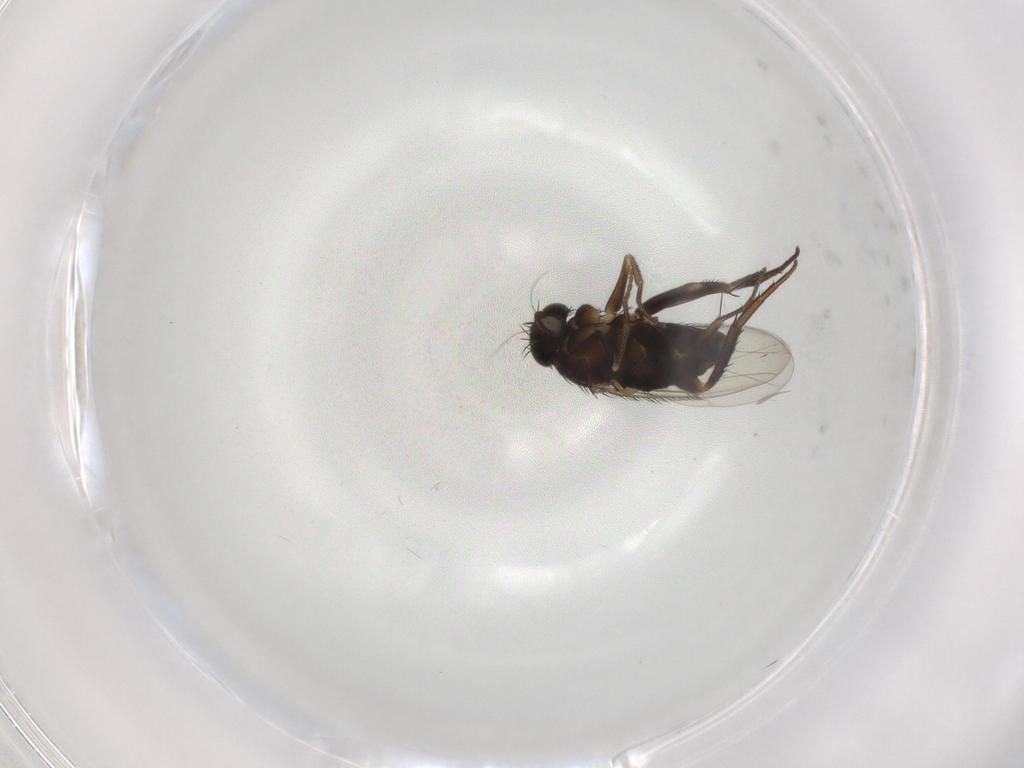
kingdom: Animalia
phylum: Arthropoda
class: Insecta
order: Diptera
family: Phoridae
